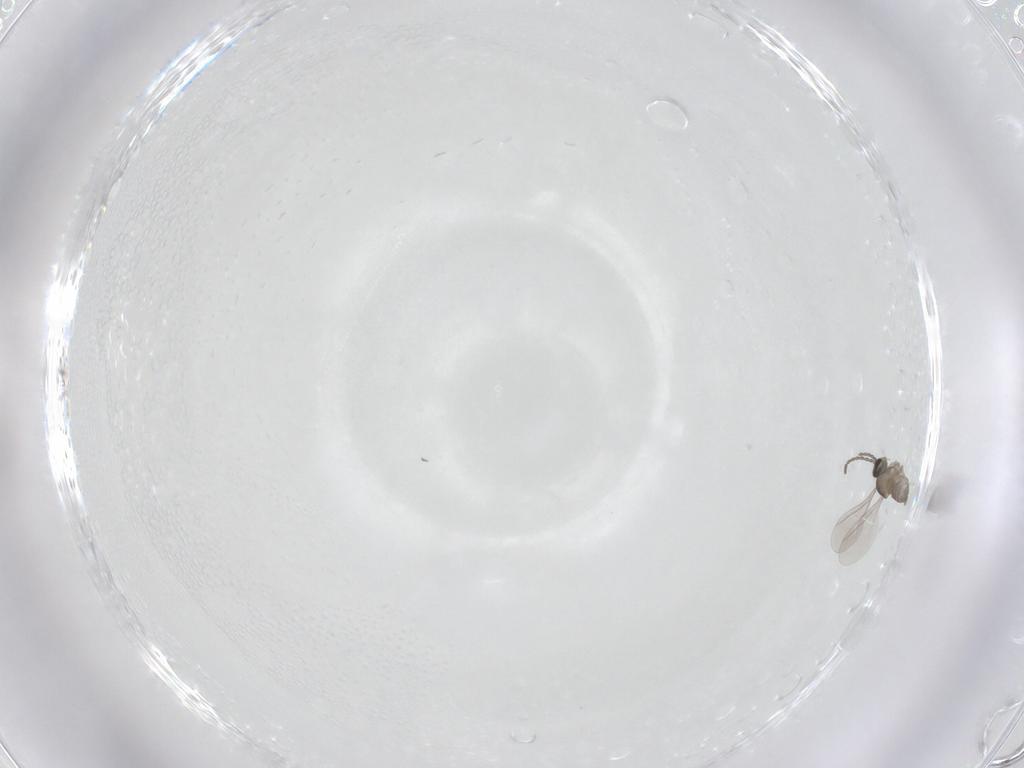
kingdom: Animalia
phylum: Arthropoda
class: Insecta
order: Diptera
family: Cecidomyiidae
